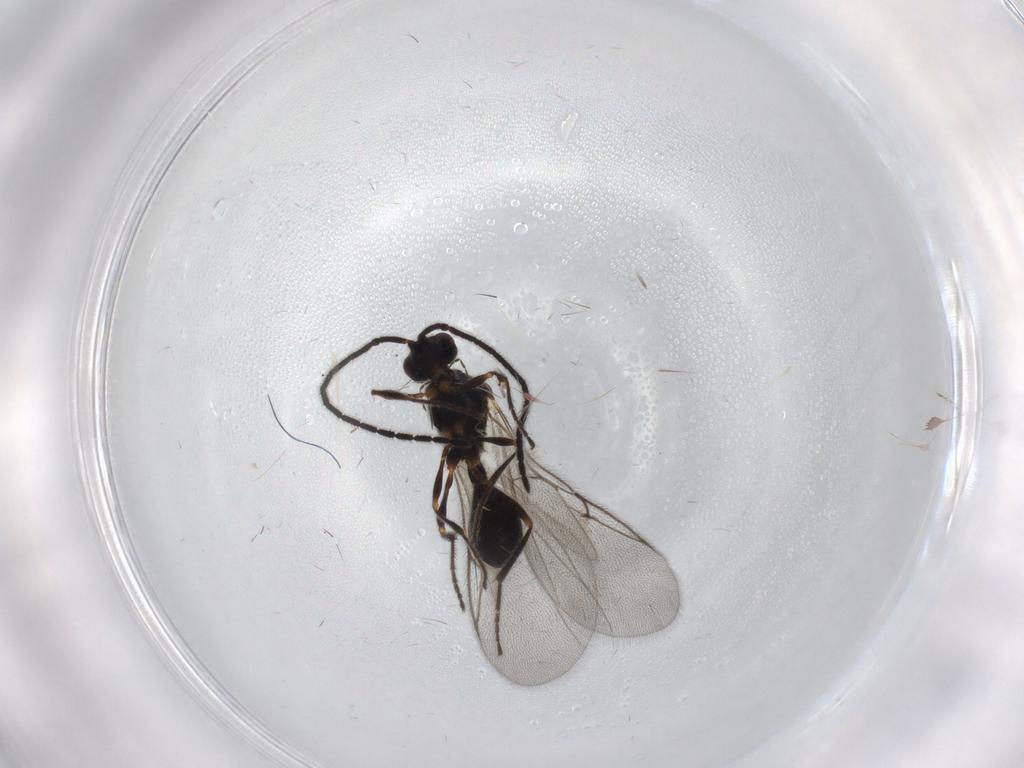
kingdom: Animalia
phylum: Arthropoda
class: Insecta
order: Hymenoptera
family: Diapriidae
